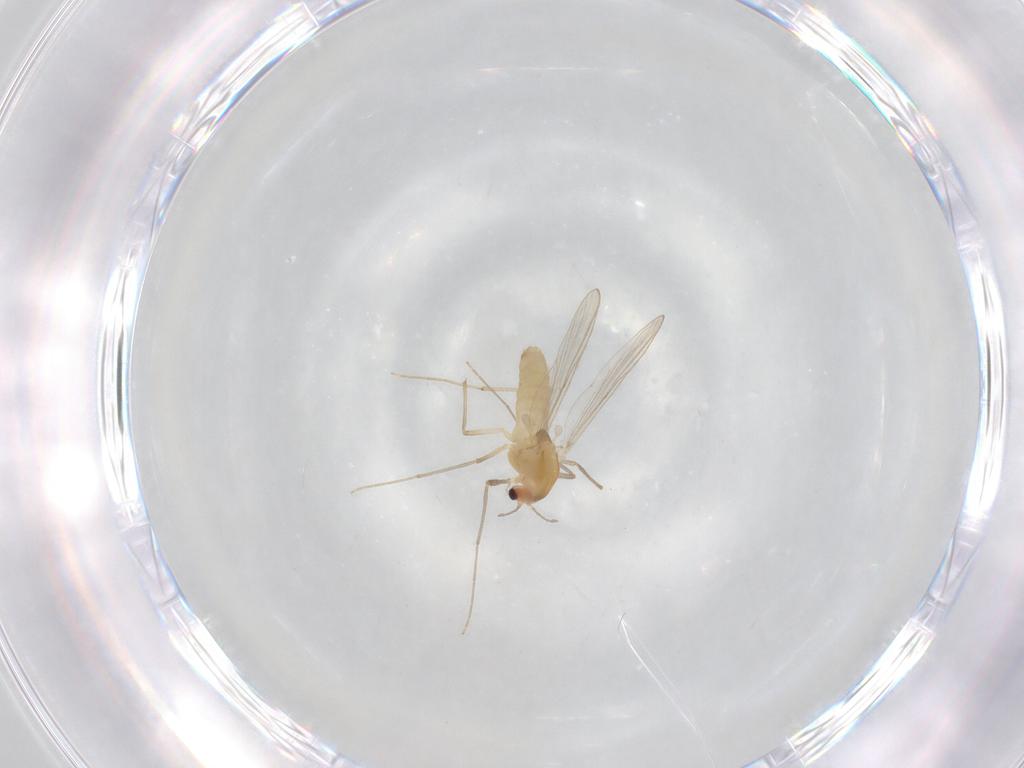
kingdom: Animalia
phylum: Arthropoda
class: Insecta
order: Diptera
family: Chironomidae
